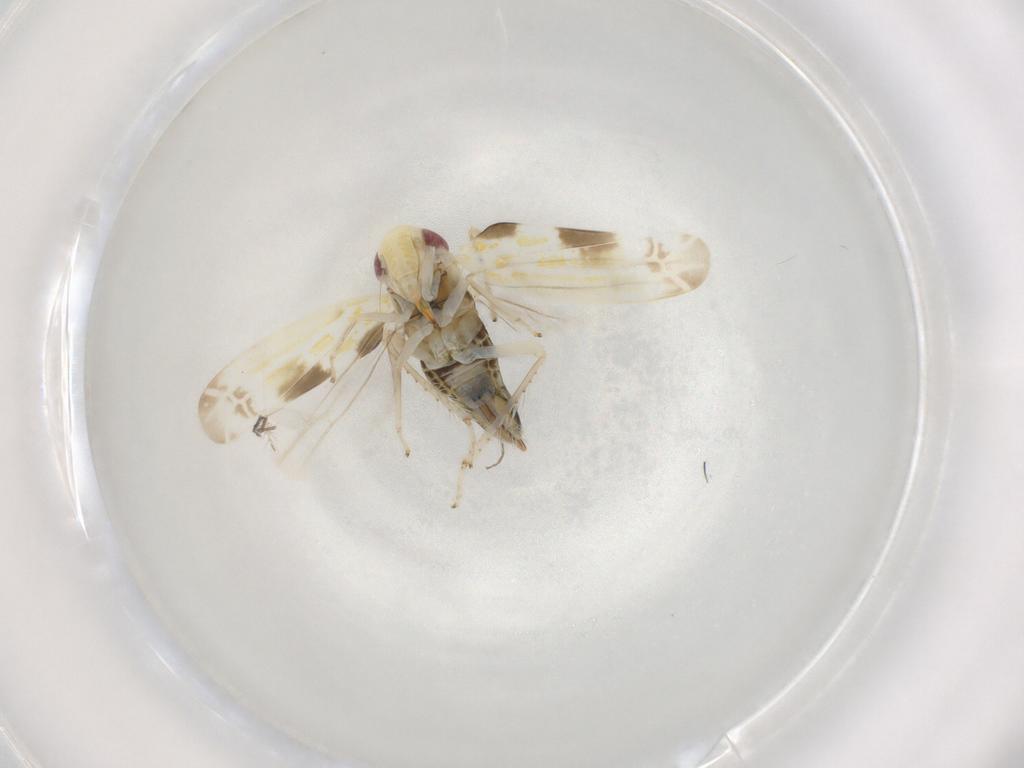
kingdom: Animalia
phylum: Arthropoda
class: Insecta
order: Hemiptera
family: Cicadellidae
